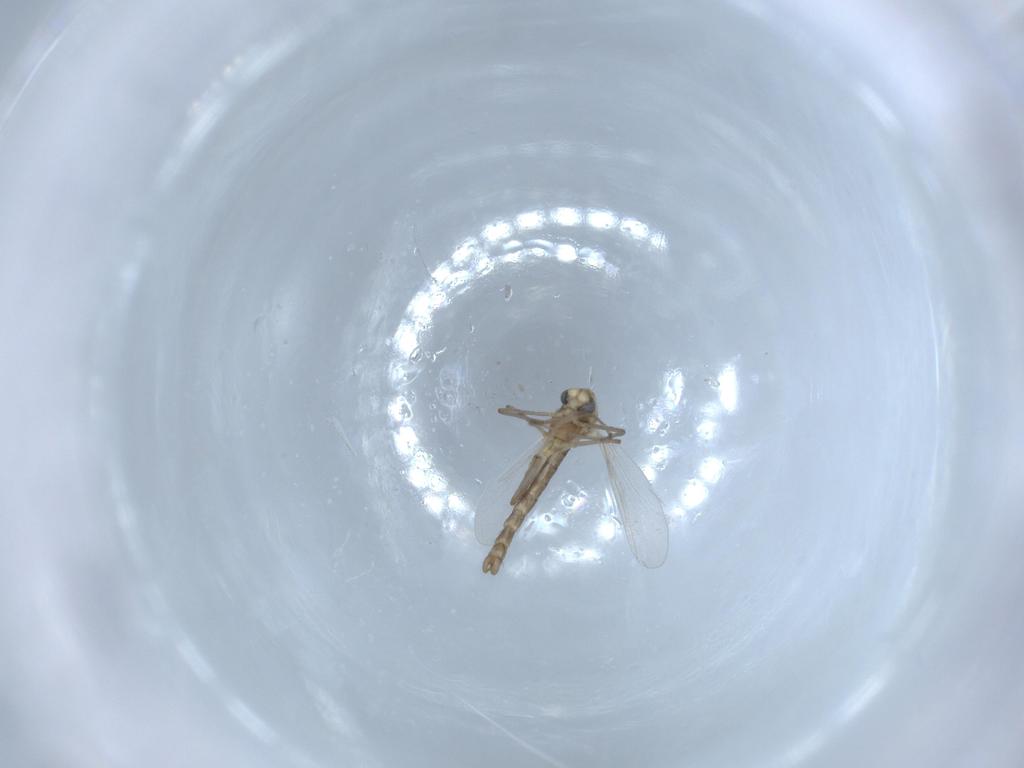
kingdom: Animalia
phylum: Arthropoda
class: Insecta
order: Diptera
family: Chironomidae
